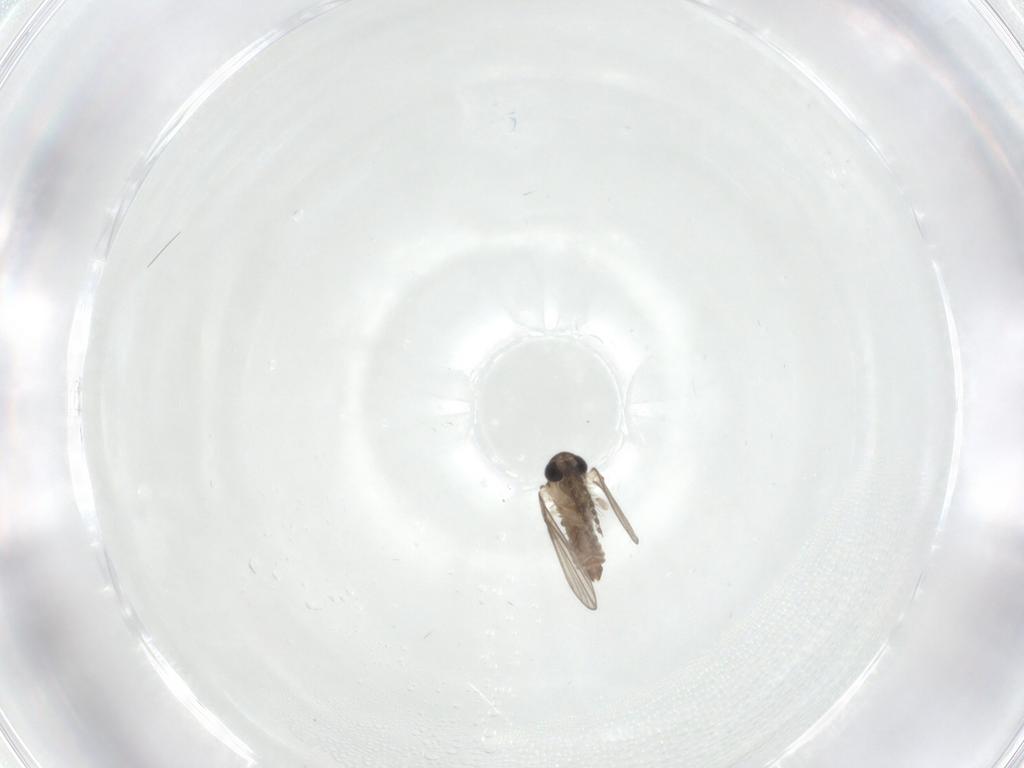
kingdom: Animalia
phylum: Arthropoda
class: Insecta
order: Diptera
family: Psychodidae
